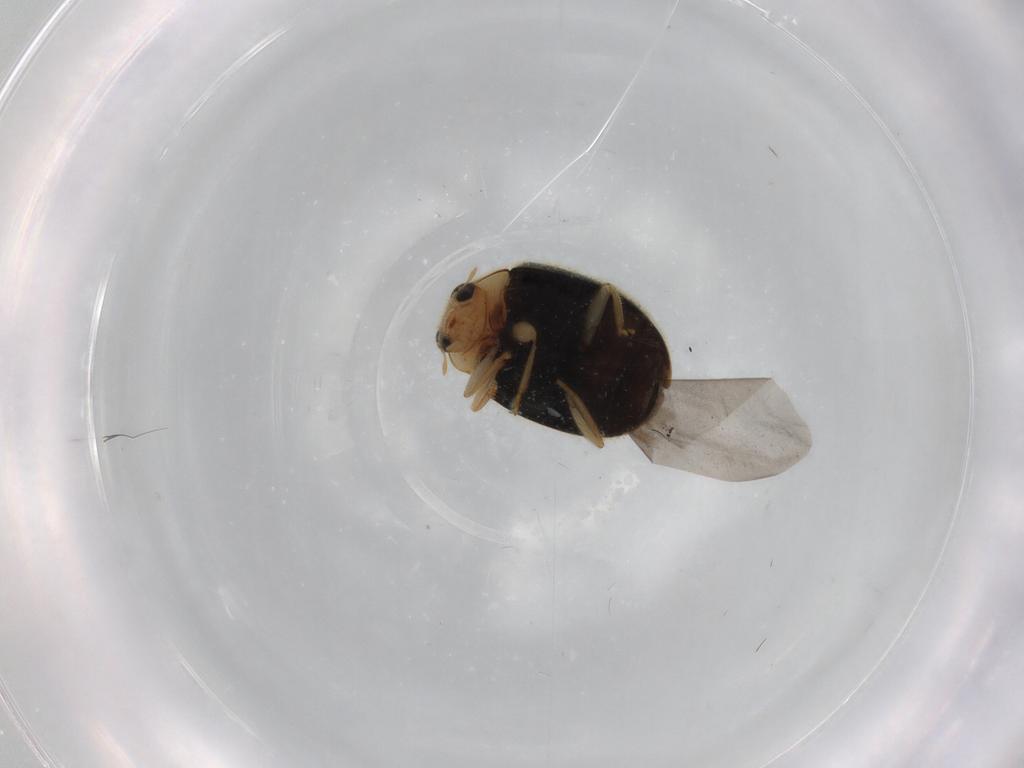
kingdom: Animalia
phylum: Arthropoda
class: Insecta
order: Coleoptera
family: Coccinellidae
